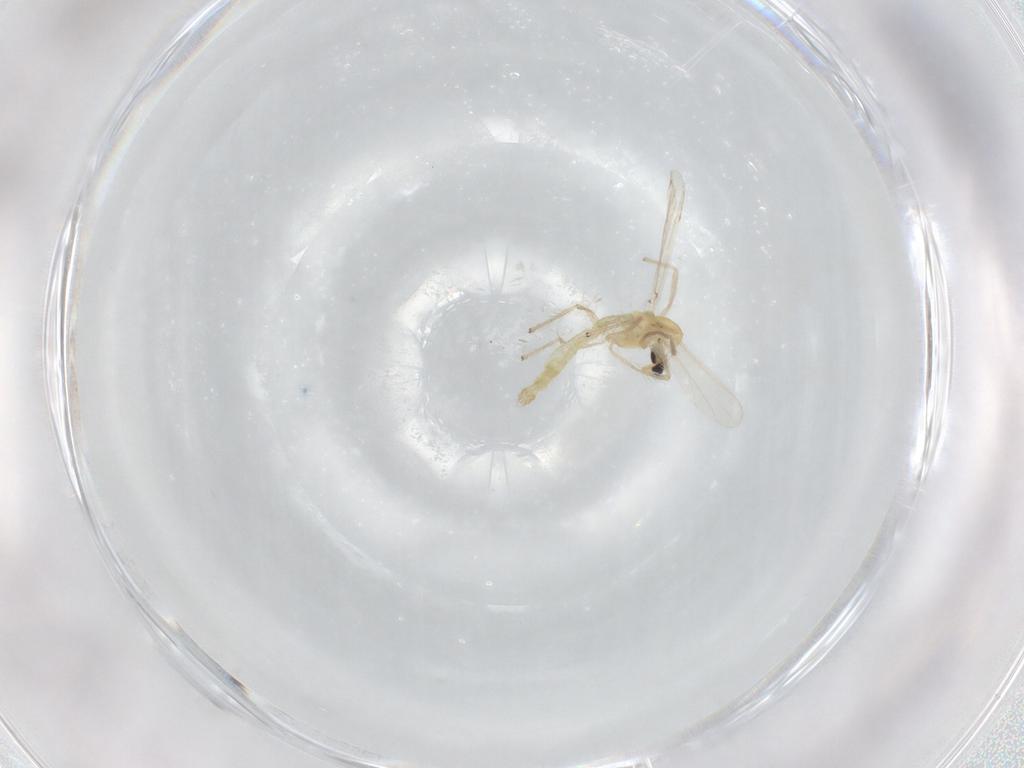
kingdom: Animalia
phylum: Arthropoda
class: Insecta
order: Diptera
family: Chironomidae
